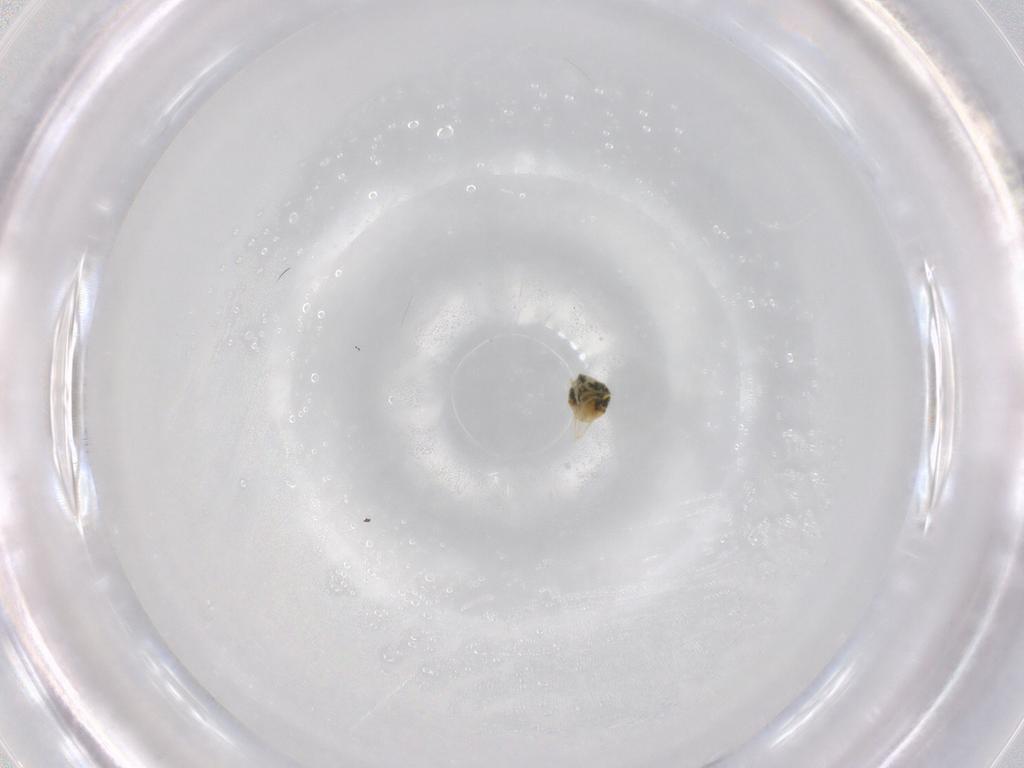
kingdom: Animalia
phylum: Arthropoda
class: Arachnida
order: Trombidiformes
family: Tetranychidae
